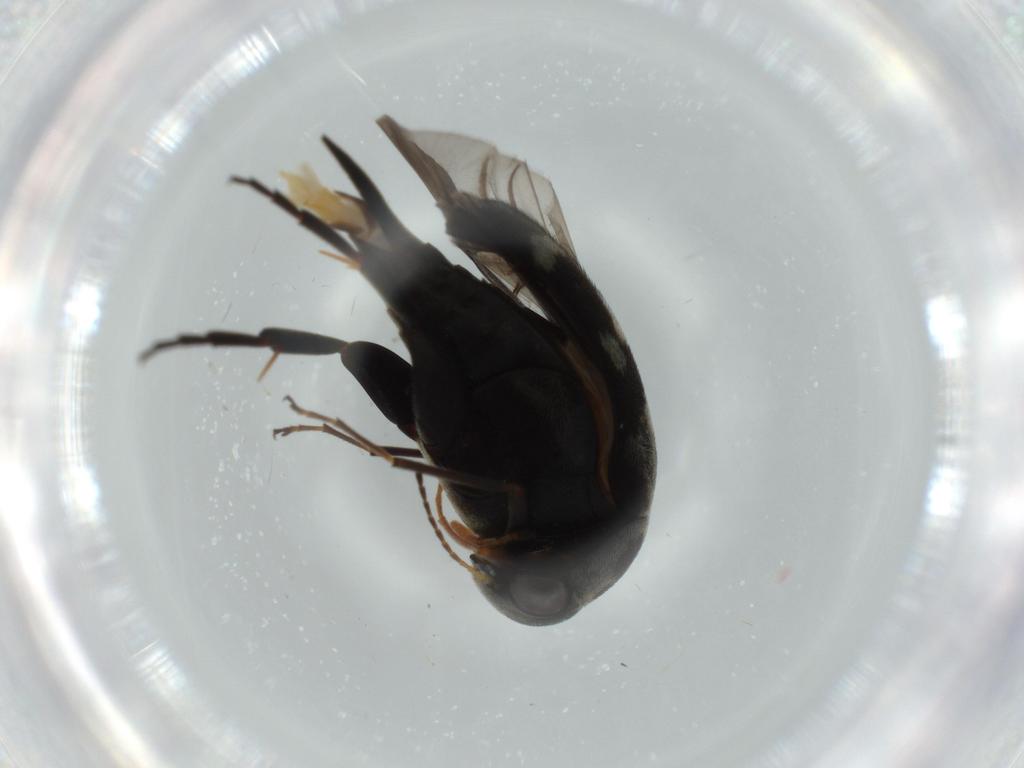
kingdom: Animalia
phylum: Arthropoda
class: Insecta
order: Coleoptera
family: Mordellidae
